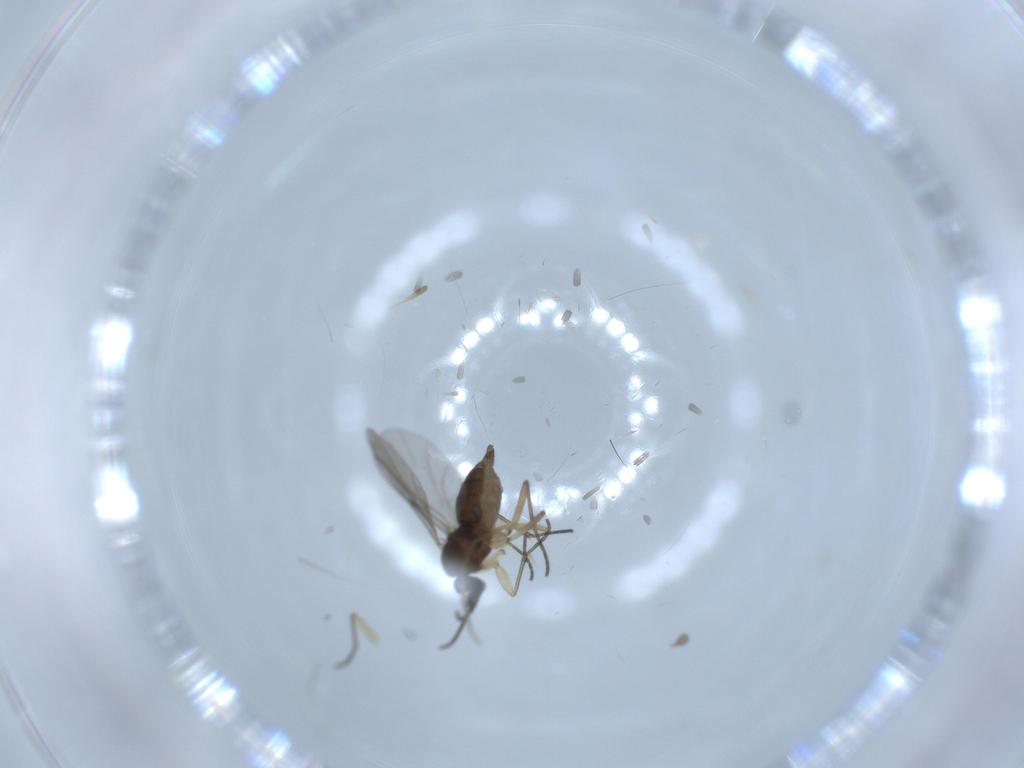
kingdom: Animalia
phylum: Arthropoda
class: Insecta
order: Diptera
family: Sciaridae
